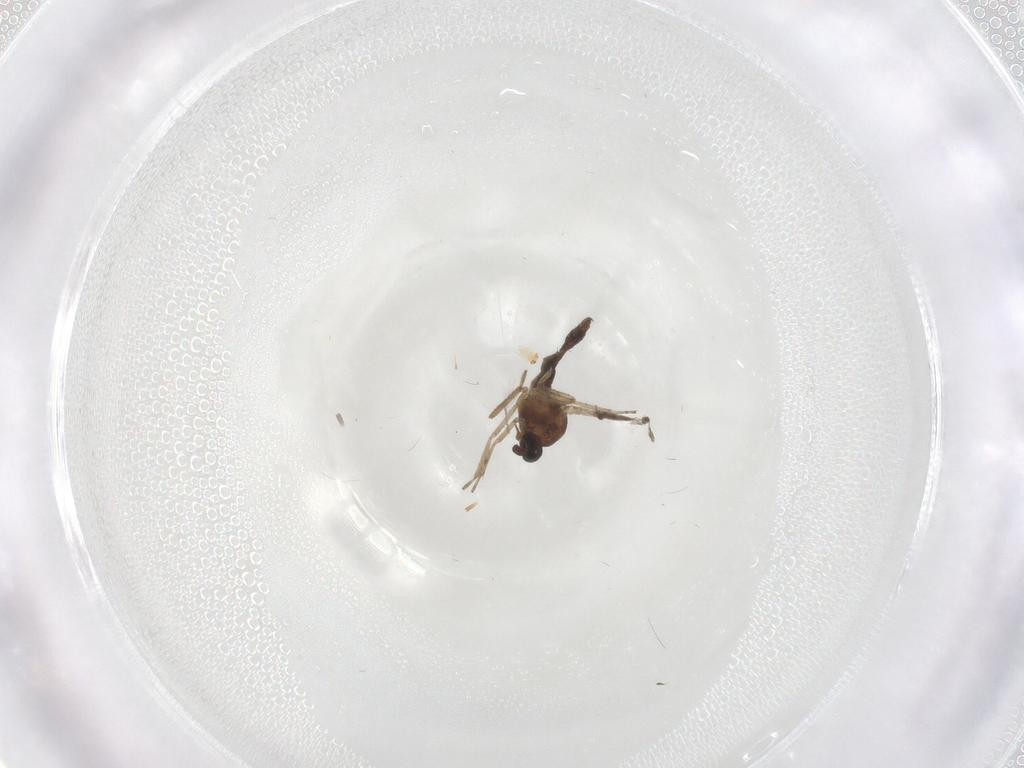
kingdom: Animalia
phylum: Arthropoda
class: Insecta
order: Diptera
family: Ceratopogonidae
